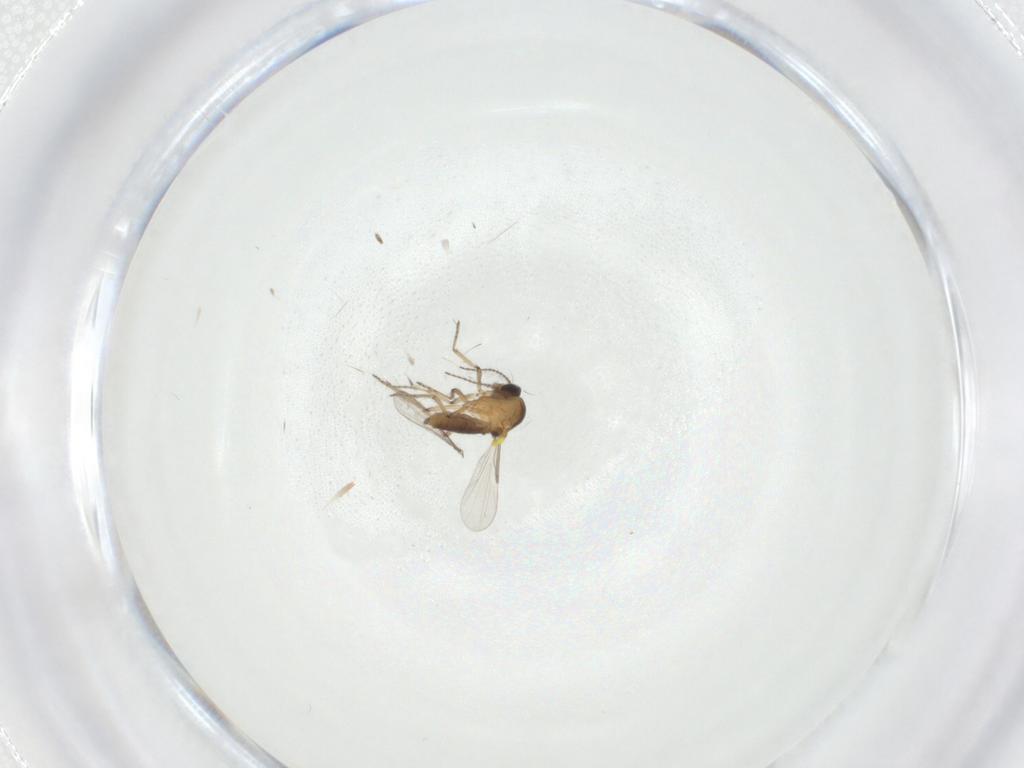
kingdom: Animalia
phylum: Arthropoda
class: Insecta
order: Diptera
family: Ceratopogonidae
